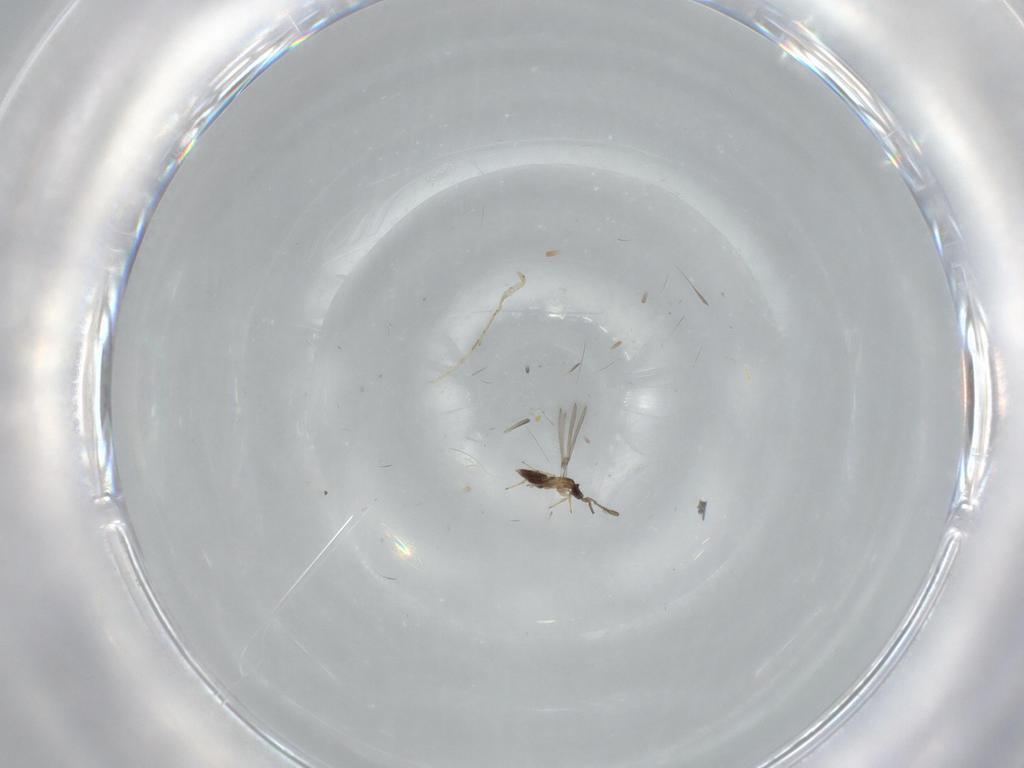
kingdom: Animalia
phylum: Arthropoda
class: Insecta
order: Hymenoptera
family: Mymaridae
